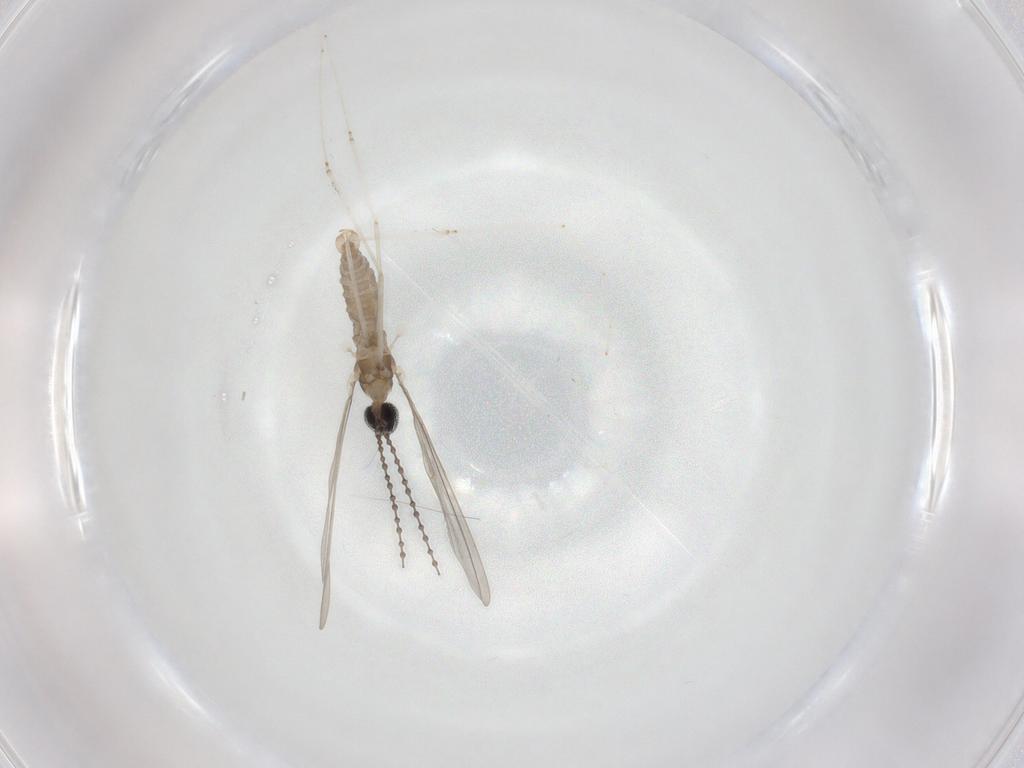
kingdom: Animalia
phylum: Arthropoda
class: Insecta
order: Diptera
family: Cecidomyiidae
